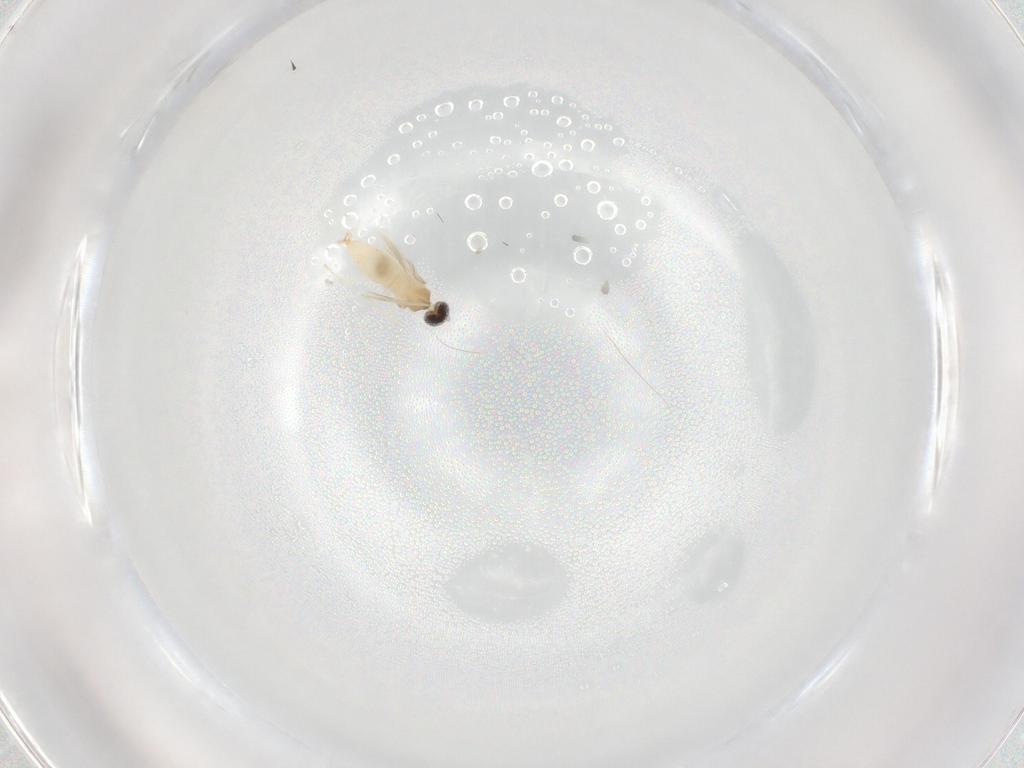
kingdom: Animalia
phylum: Arthropoda
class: Insecta
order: Diptera
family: Cecidomyiidae
